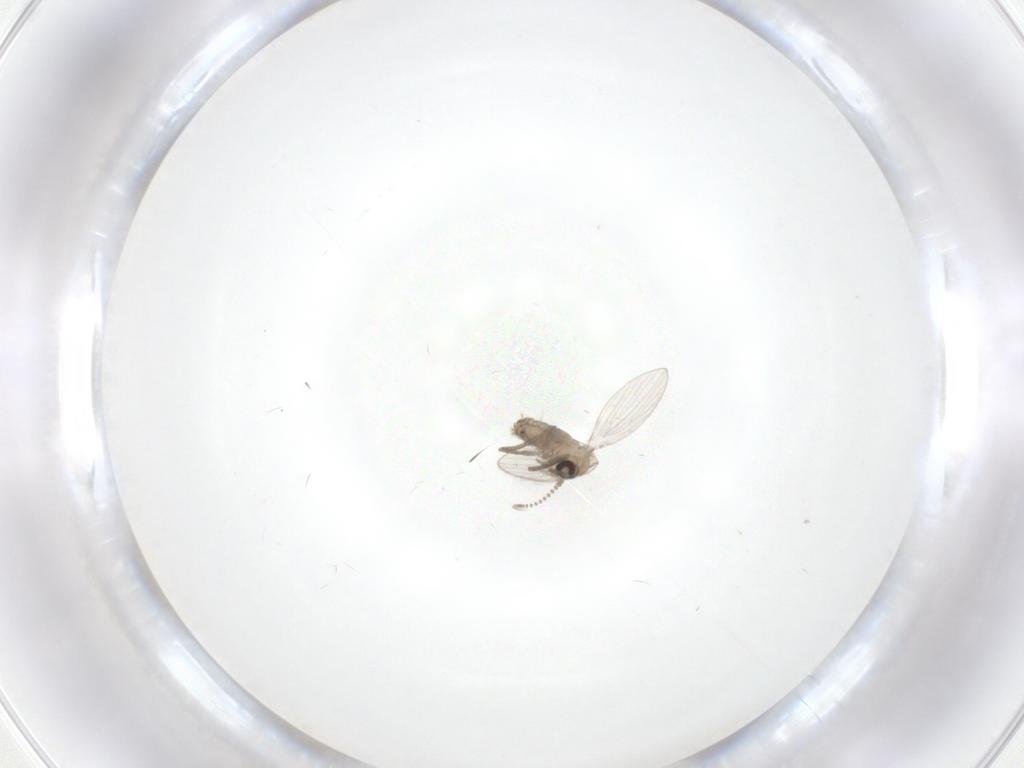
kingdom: Animalia
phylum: Arthropoda
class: Insecta
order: Diptera
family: Psychodidae
